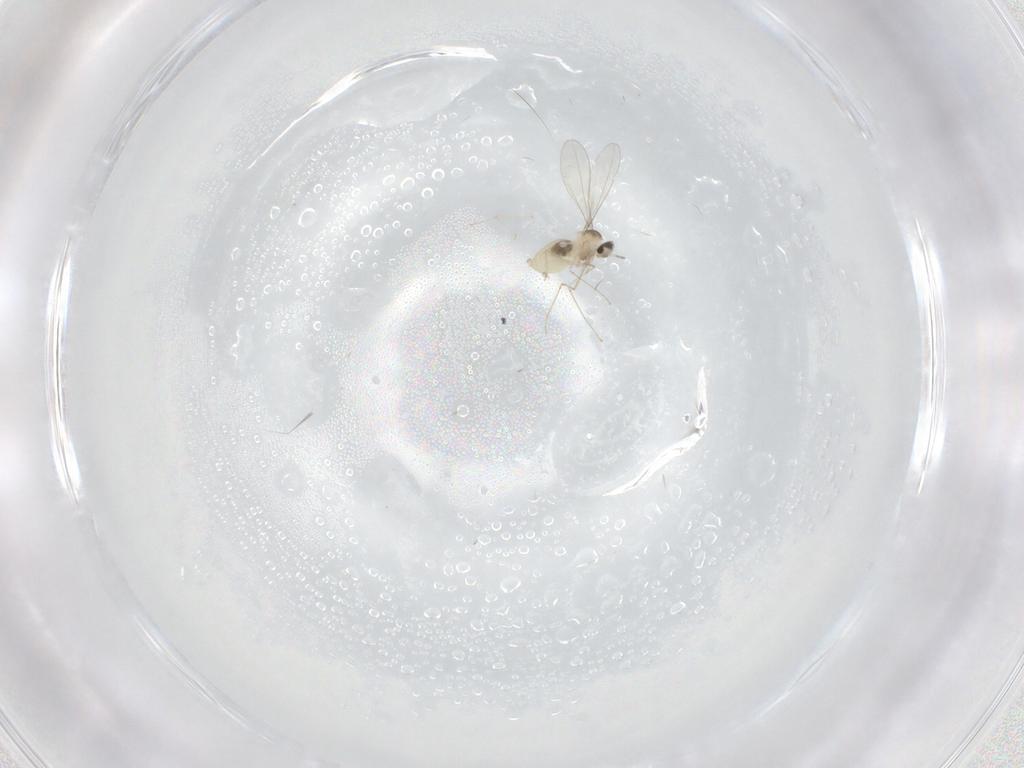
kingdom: Animalia
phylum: Arthropoda
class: Insecta
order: Diptera
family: Cecidomyiidae
